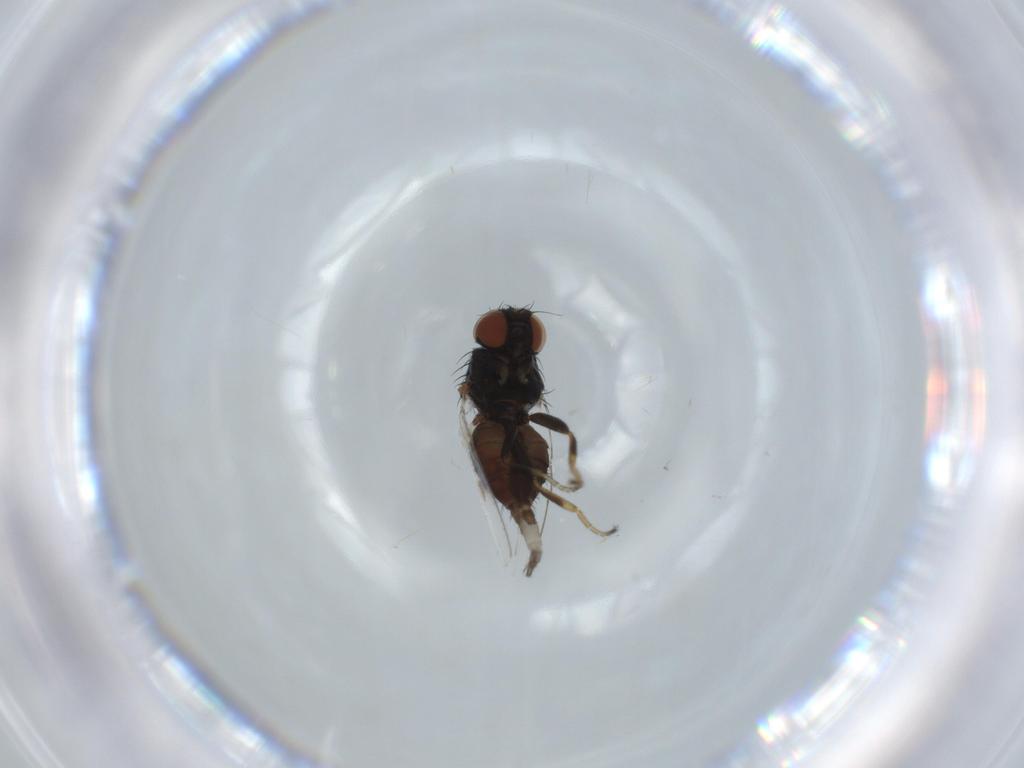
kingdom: Animalia
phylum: Arthropoda
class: Insecta
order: Diptera
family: Milichiidae
